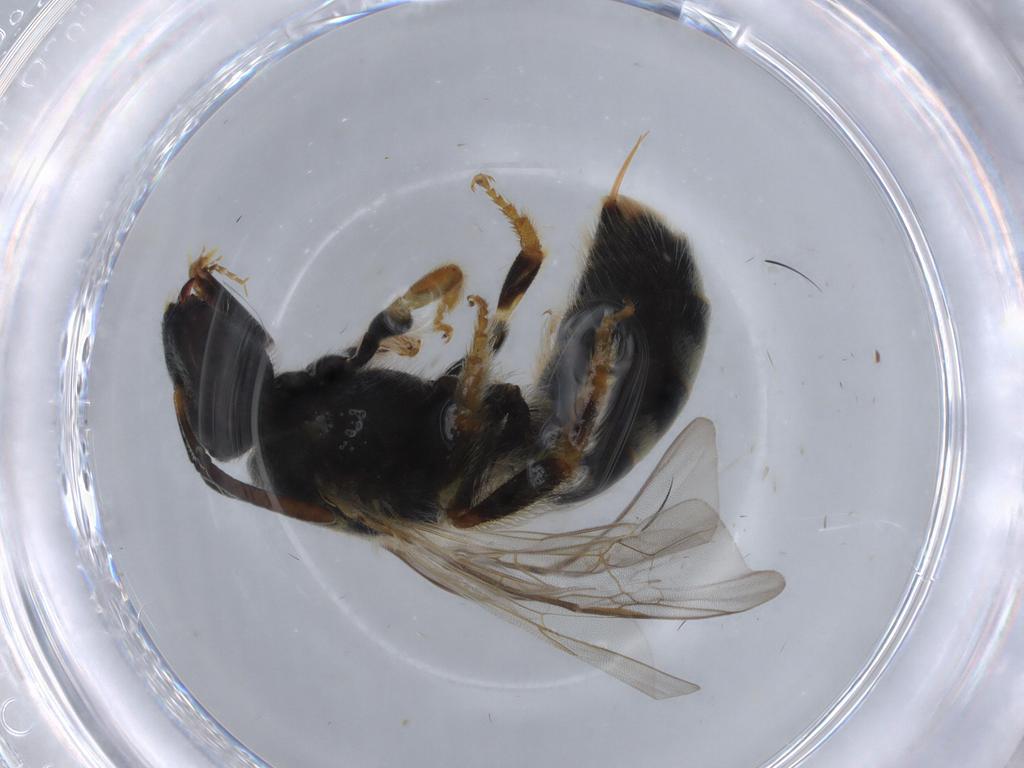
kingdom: Animalia
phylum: Arthropoda
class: Insecta
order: Hymenoptera
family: Halictidae
